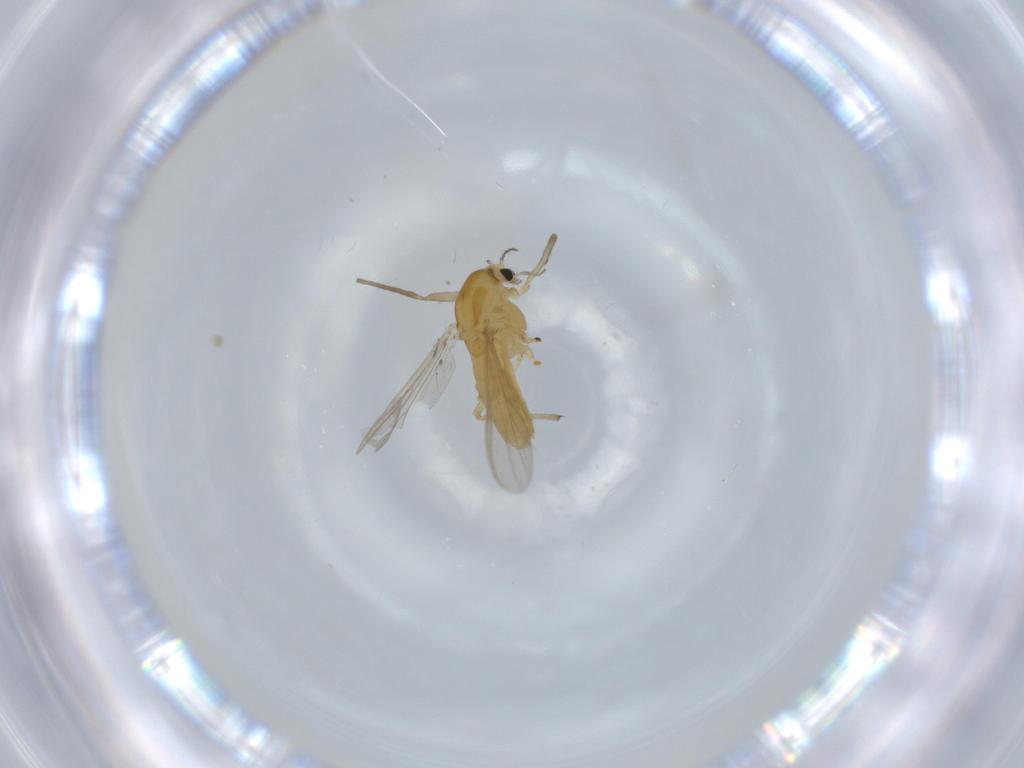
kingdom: Animalia
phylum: Arthropoda
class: Insecta
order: Diptera
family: Chironomidae
